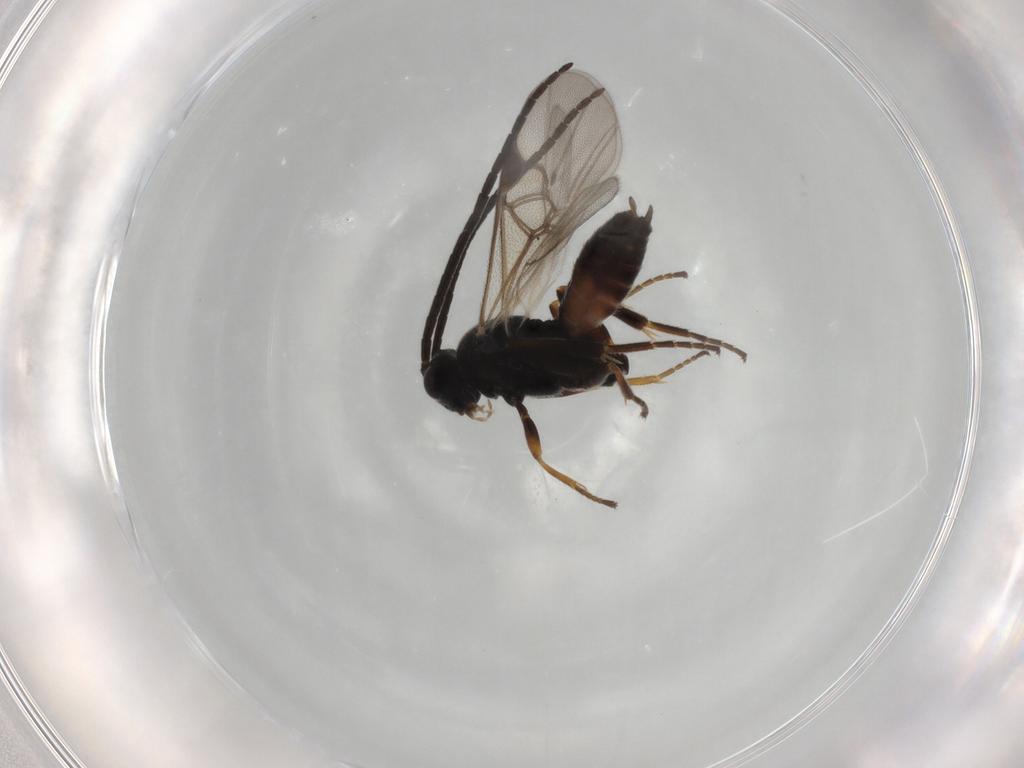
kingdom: Animalia
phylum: Arthropoda
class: Insecta
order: Hymenoptera
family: Braconidae
